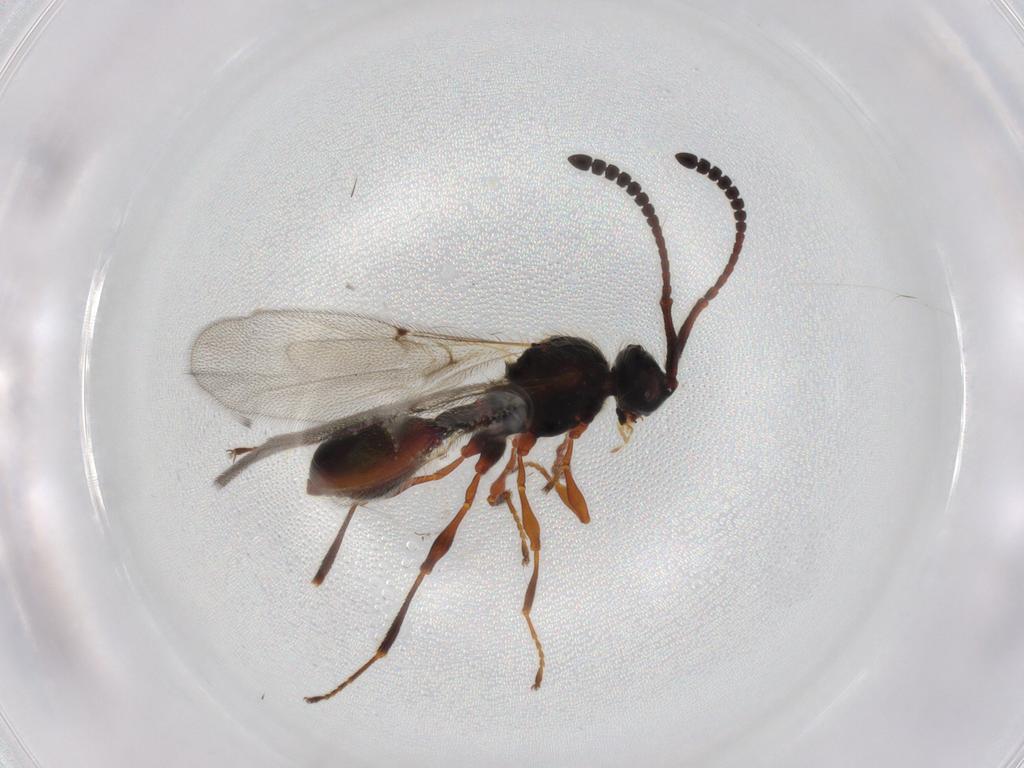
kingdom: Animalia
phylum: Arthropoda
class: Insecta
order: Hymenoptera
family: Diapriidae
